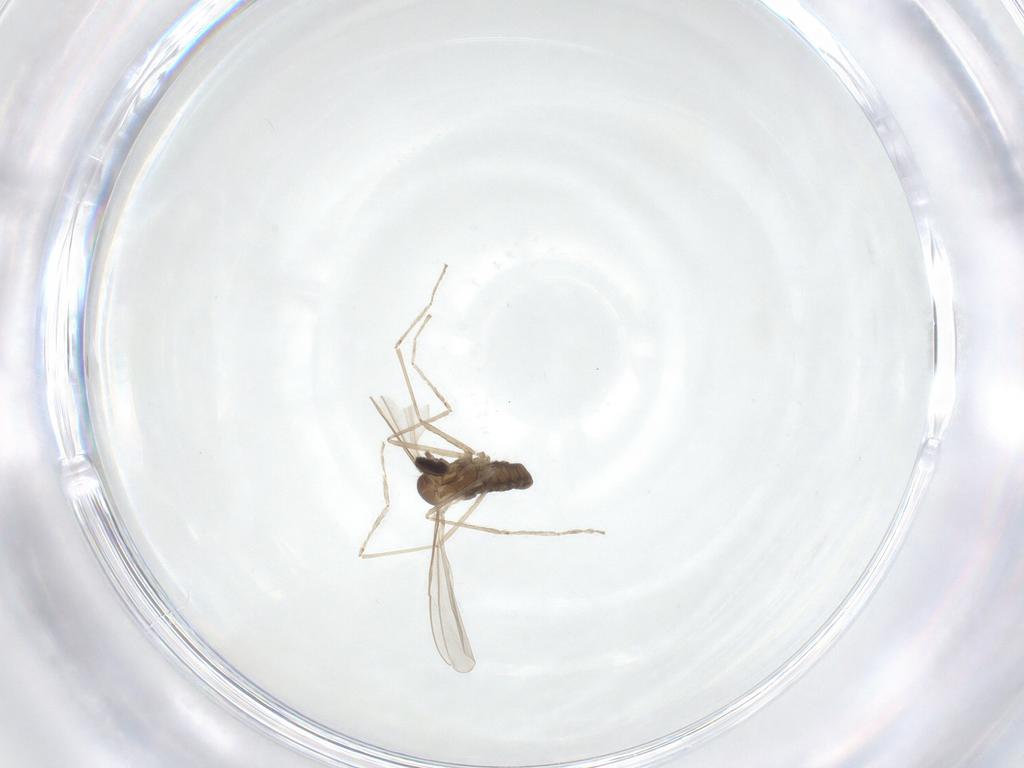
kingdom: Animalia
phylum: Arthropoda
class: Insecta
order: Diptera
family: Cecidomyiidae
